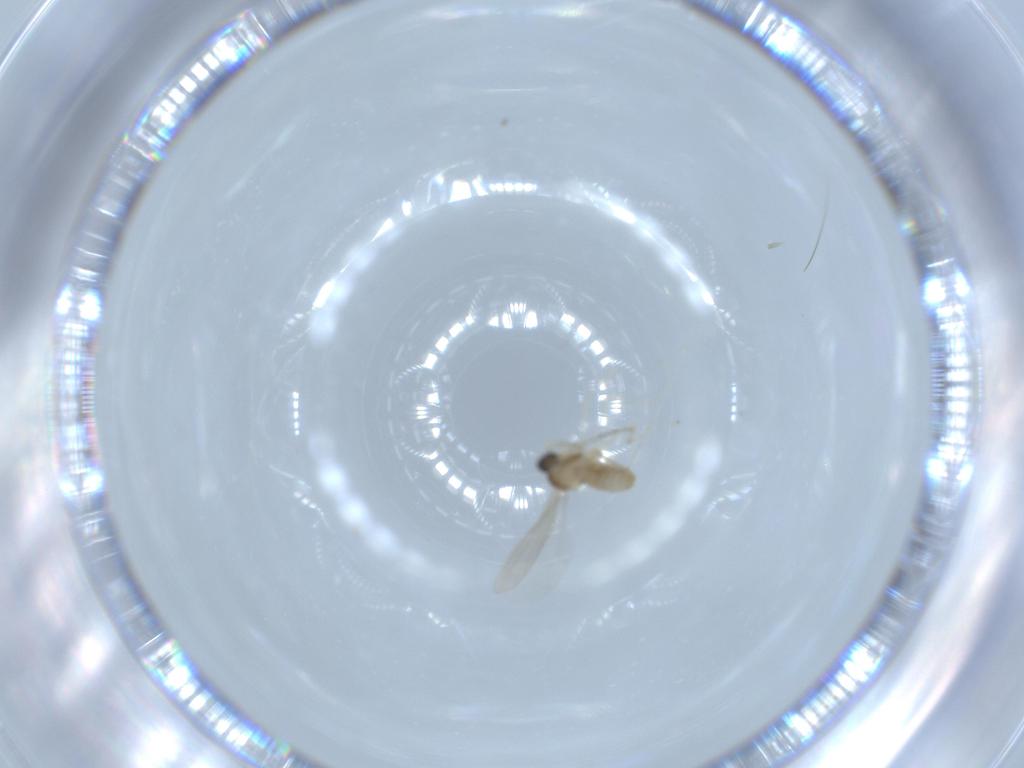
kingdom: Animalia
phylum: Arthropoda
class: Insecta
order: Diptera
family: Cecidomyiidae
